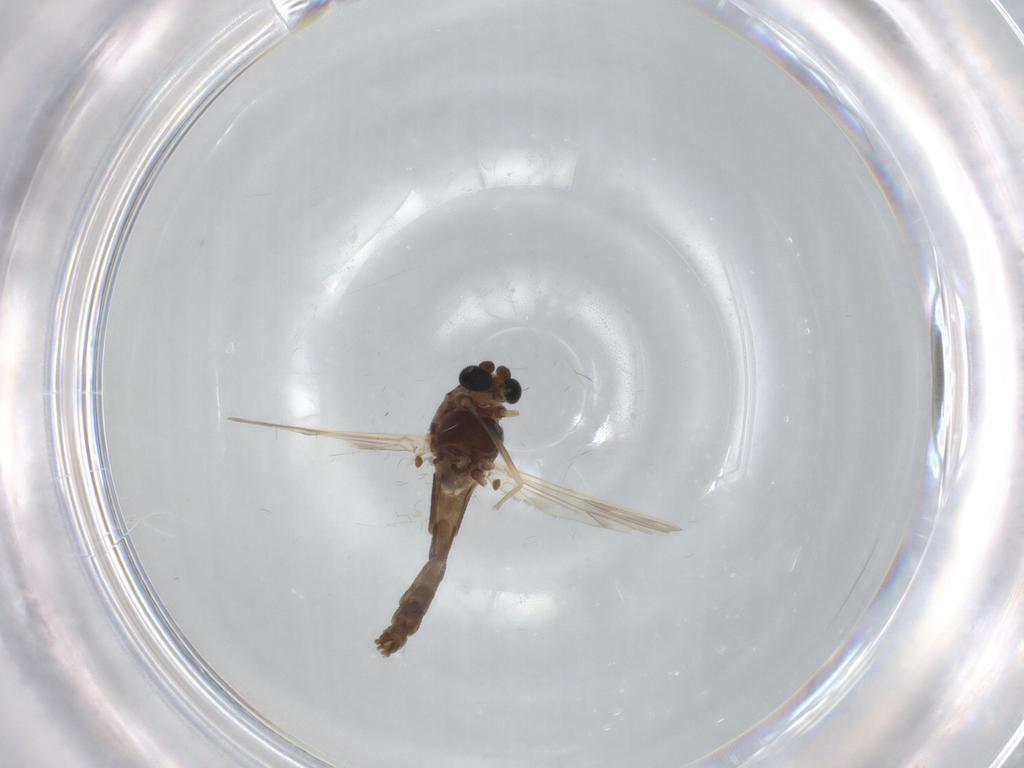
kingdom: Animalia
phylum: Arthropoda
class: Insecta
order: Diptera
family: Chironomidae
